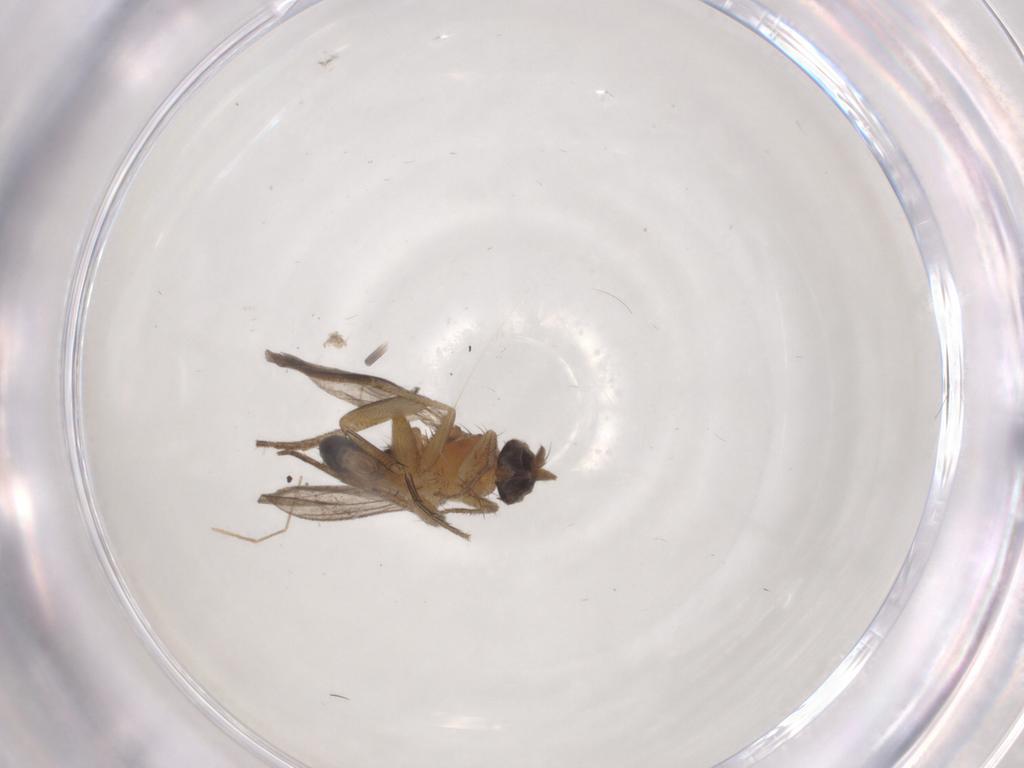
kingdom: Animalia
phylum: Arthropoda
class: Insecta
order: Diptera
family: Dolichopodidae
